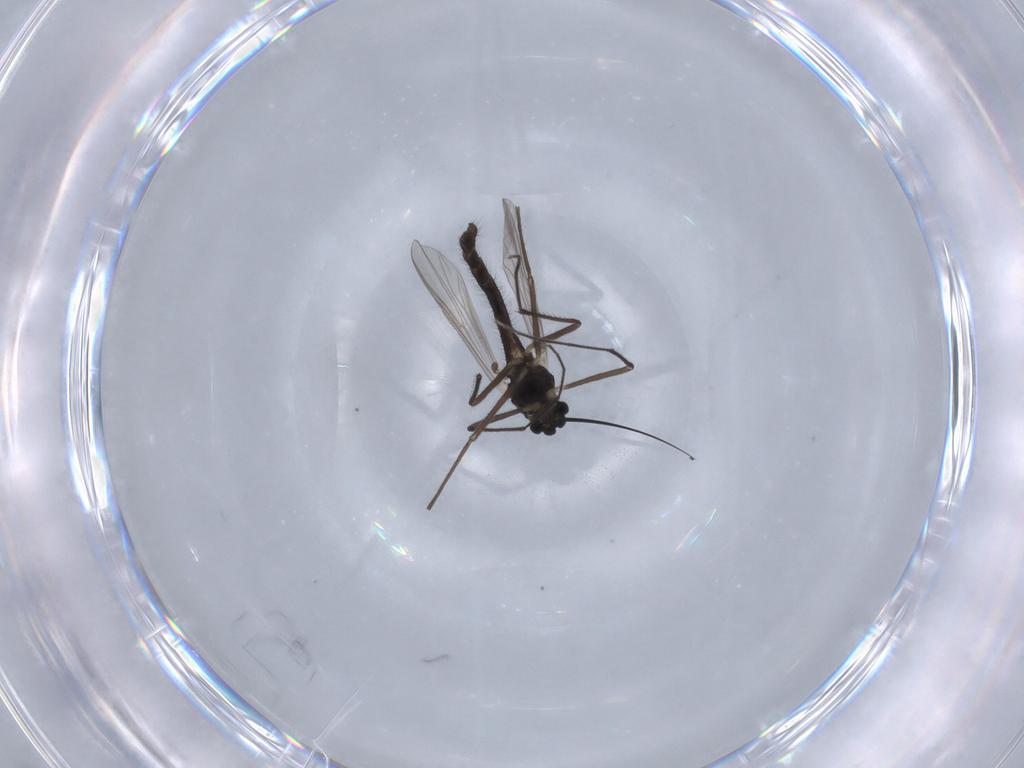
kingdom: Animalia
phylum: Arthropoda
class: Insecta
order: Diptera
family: Chironomidae
